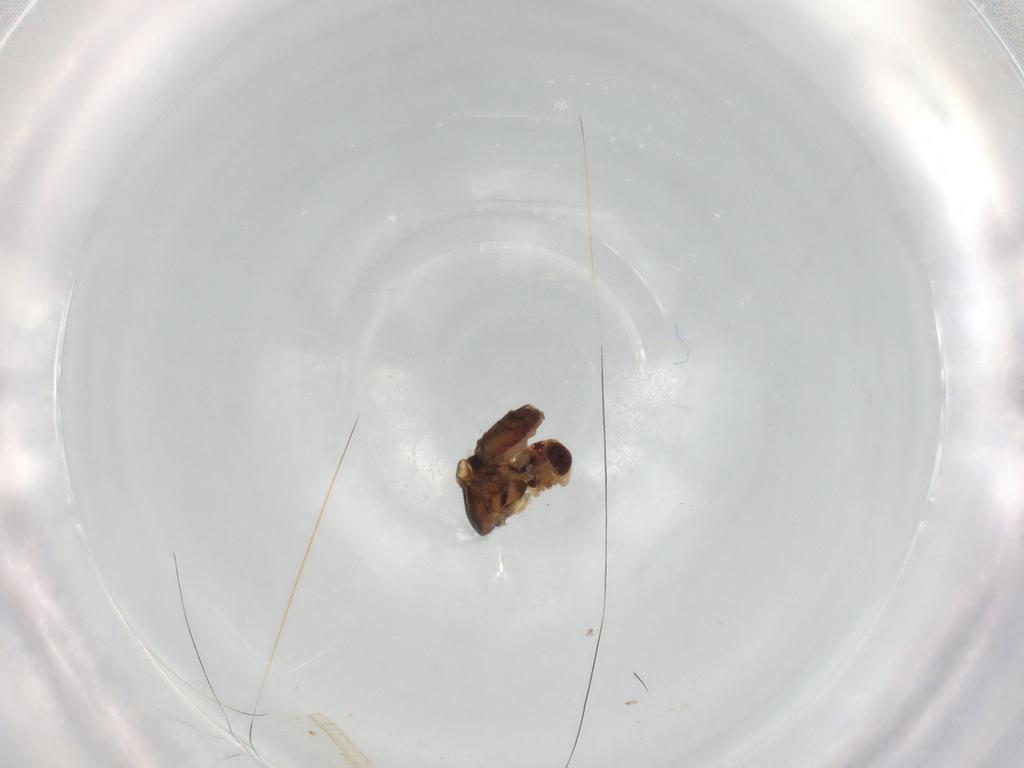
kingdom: Animalia
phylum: Arthropoda
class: Insecta
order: Diptera
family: Chloropidae
